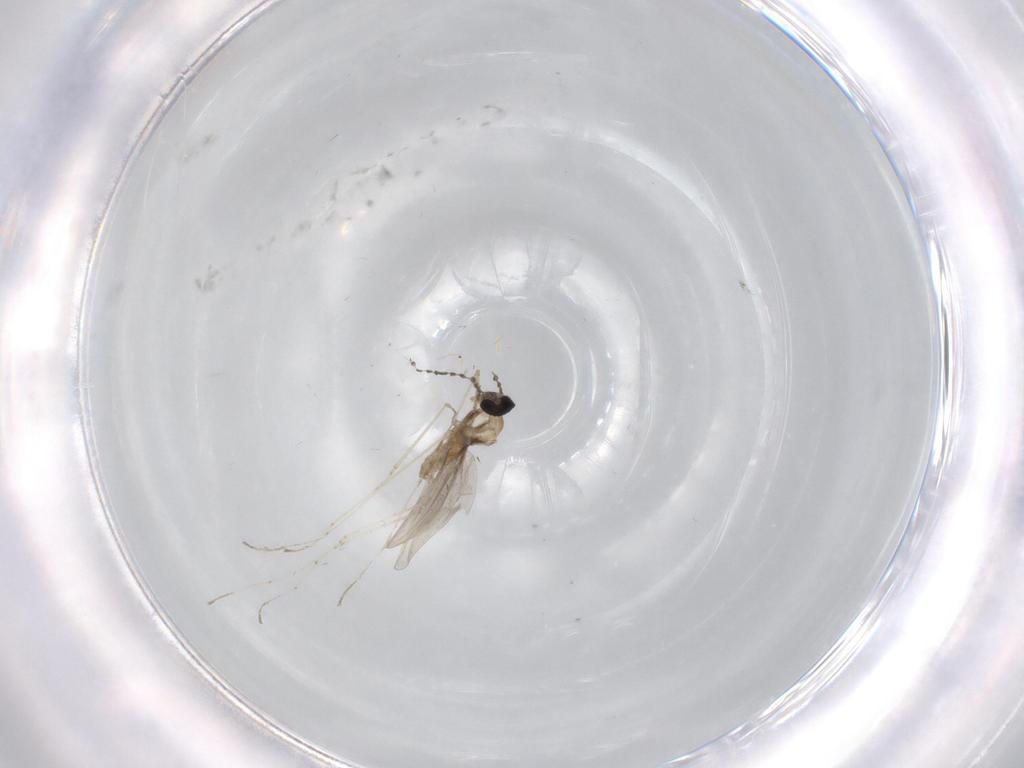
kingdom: Animalia
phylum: Arthropoda
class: Insecta
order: Diptera
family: Cecidomyiidae
